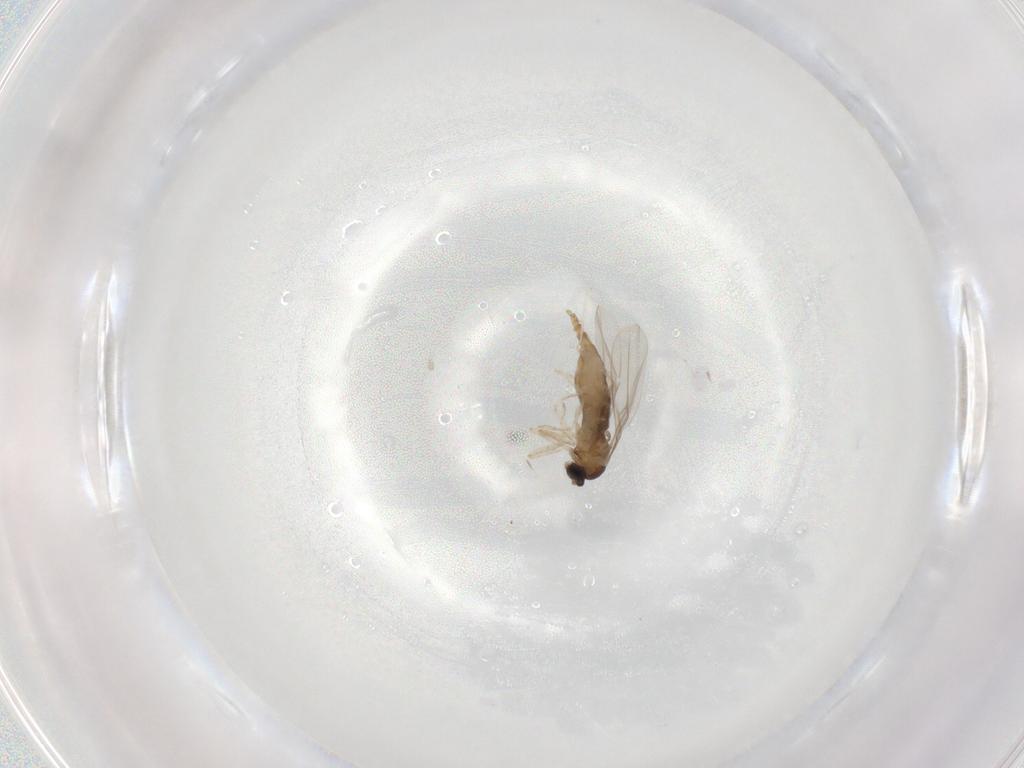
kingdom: Animalia
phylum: Arthropoda
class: Insecta
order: Diptera
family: Cecidomyiidae
